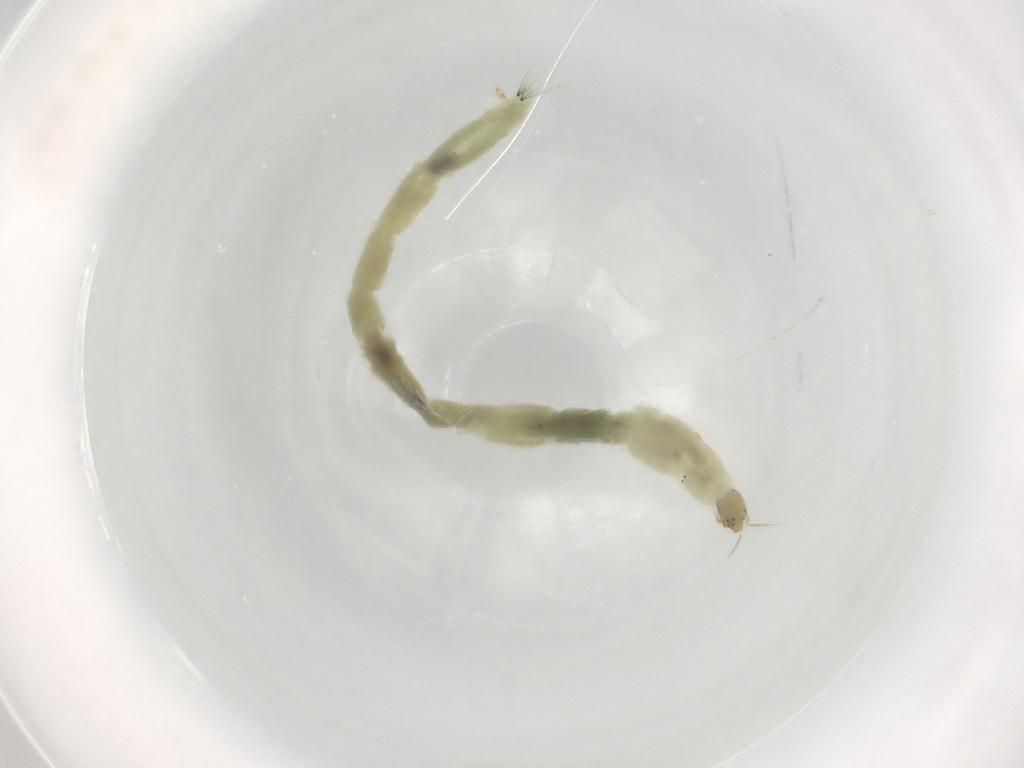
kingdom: Animalia
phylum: Arthropoda
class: Insecta
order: Diptera
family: Chironomidae
